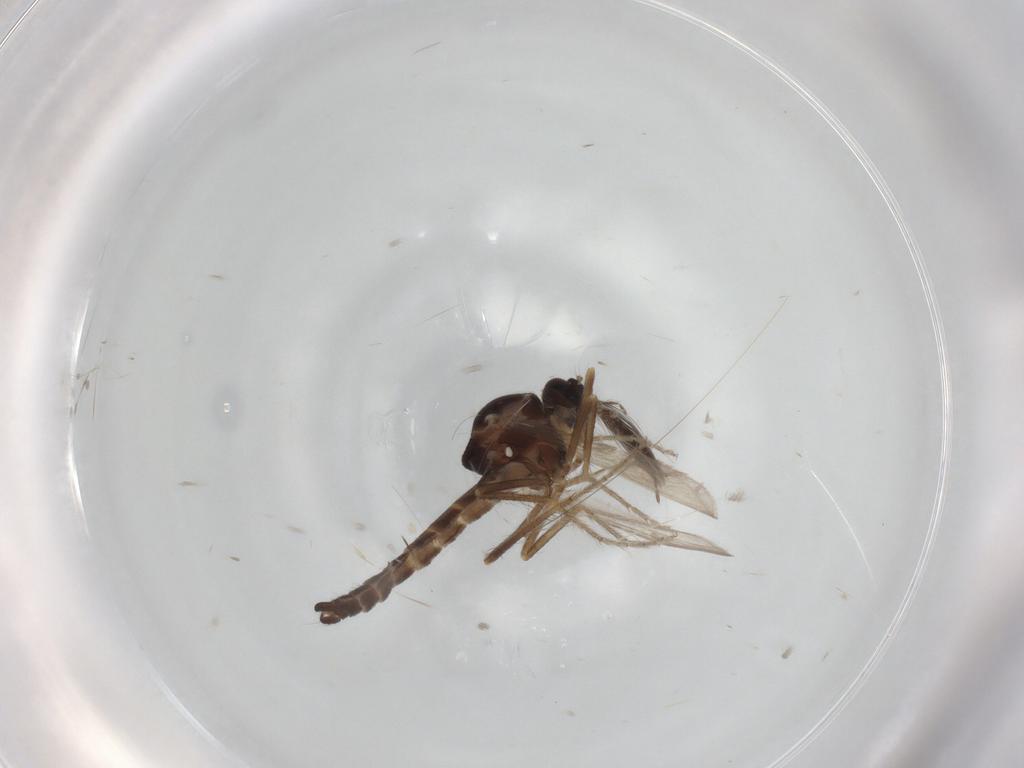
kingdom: Animalia
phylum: Arthropoda
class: Insecta
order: Diptera
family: Ceratopogonidae
